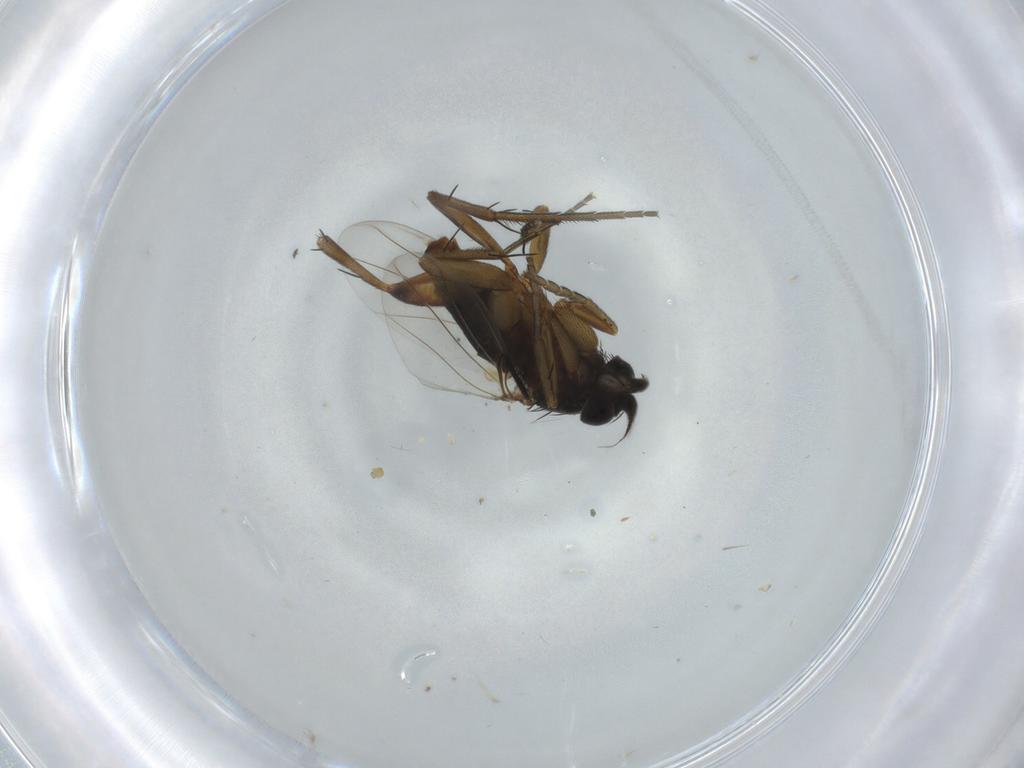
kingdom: Animalia
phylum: Arthropoda
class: Insecta
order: Diptera
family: Phoridae
